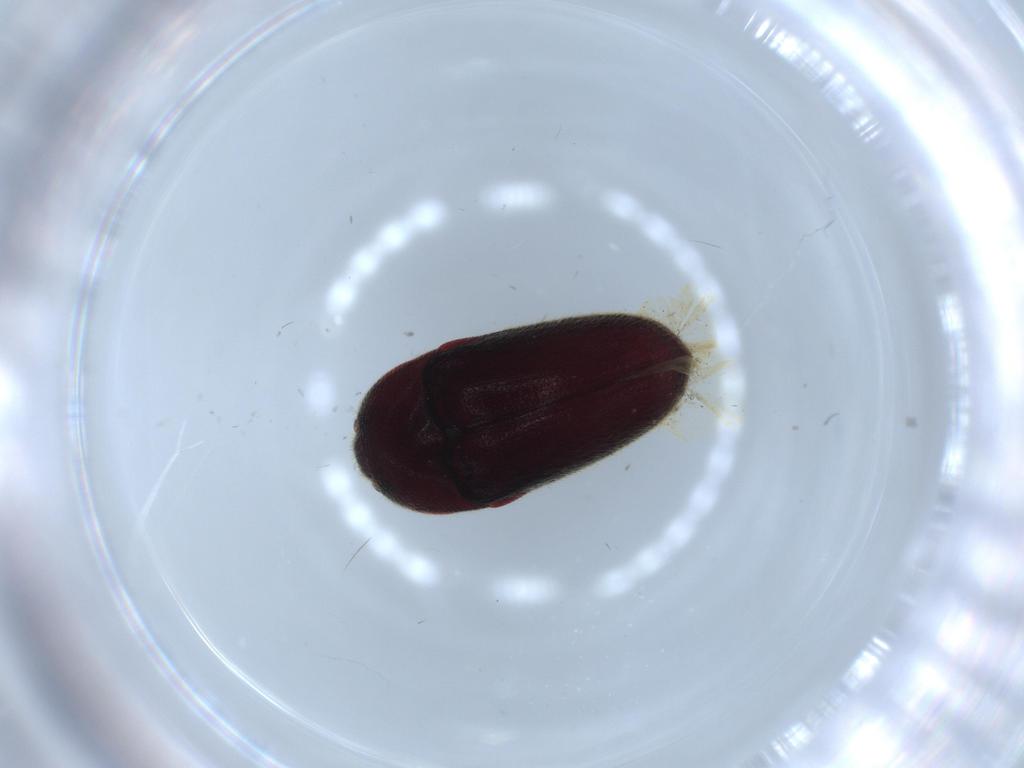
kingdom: Animalia
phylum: Arthropoda
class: Insecta
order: Coleoptera
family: Throscidae
